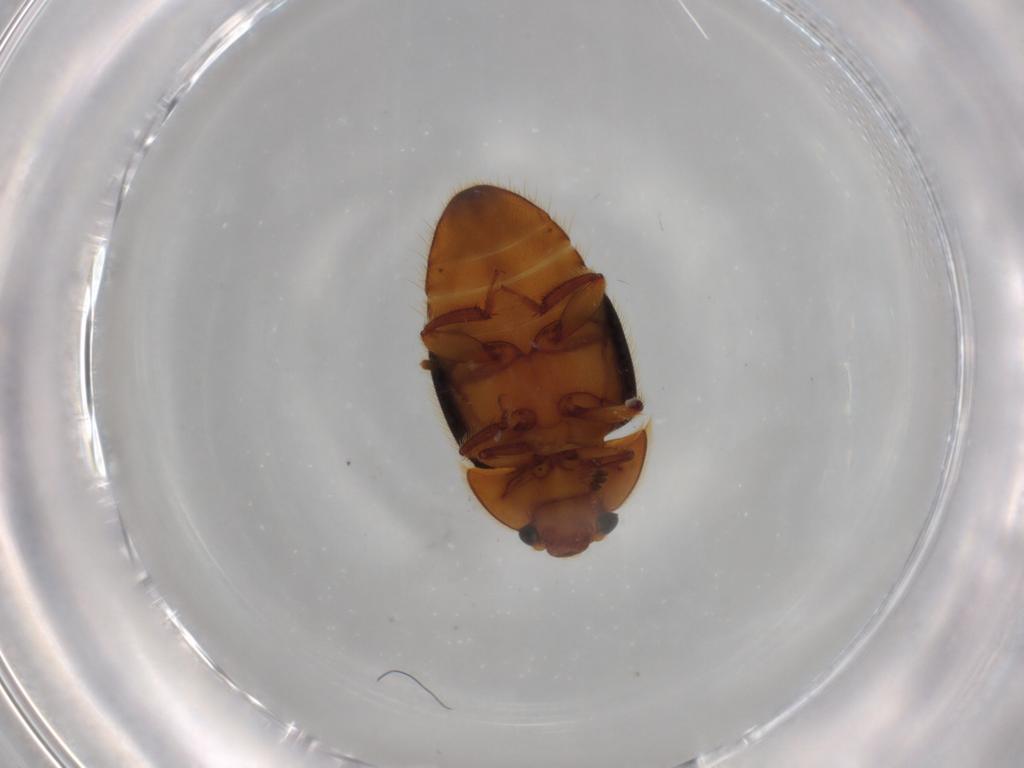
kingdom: Animalia
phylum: Arthropoda
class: Insecta
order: Coleoptera
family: Nitidulidae
